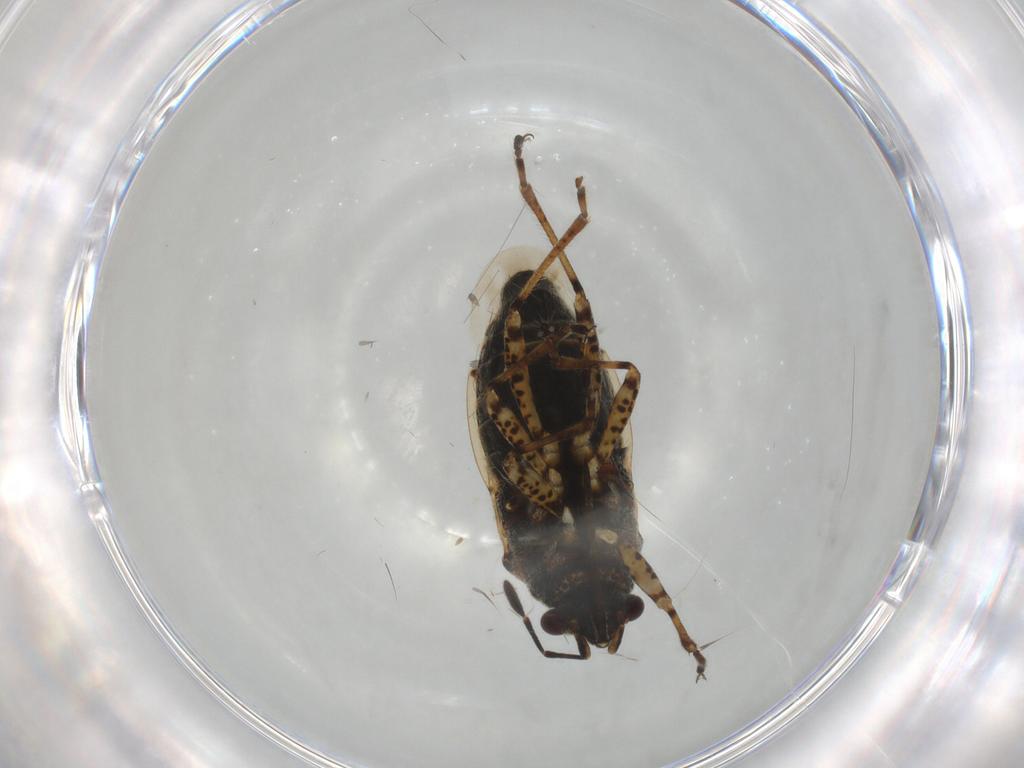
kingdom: Animalia
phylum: Arthropoda
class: Insecta
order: Hemiptera
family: Lygaeidae
